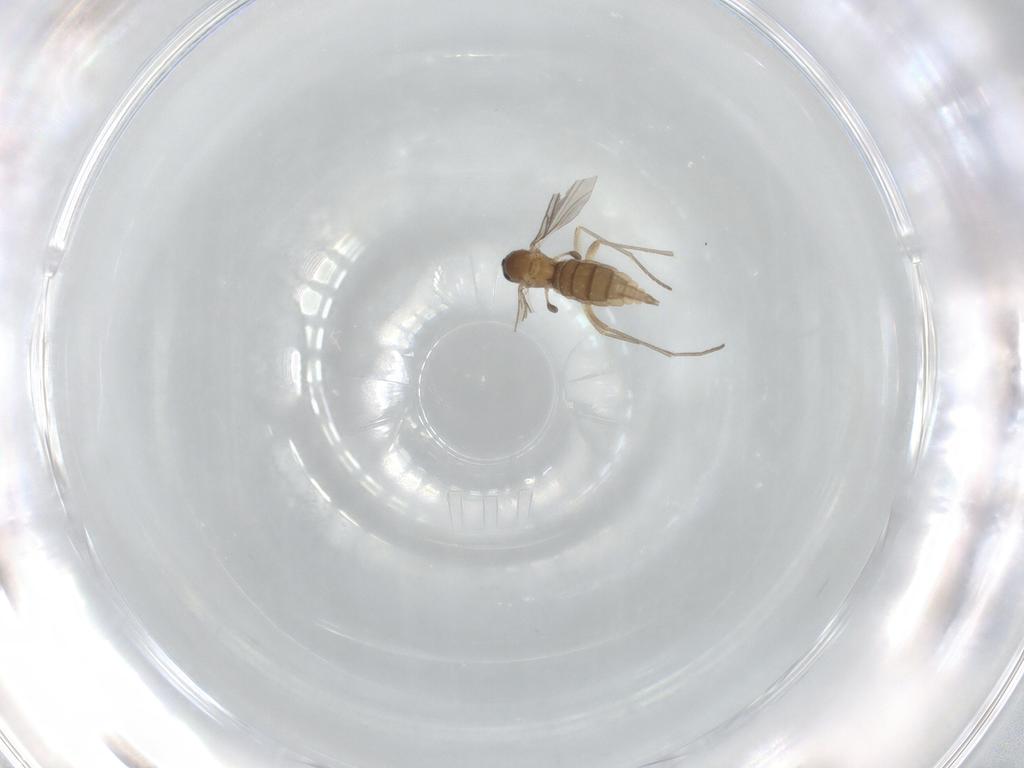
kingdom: Animalia
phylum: Arthropoda
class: Insecta
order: Diptera
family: Sciaridae
